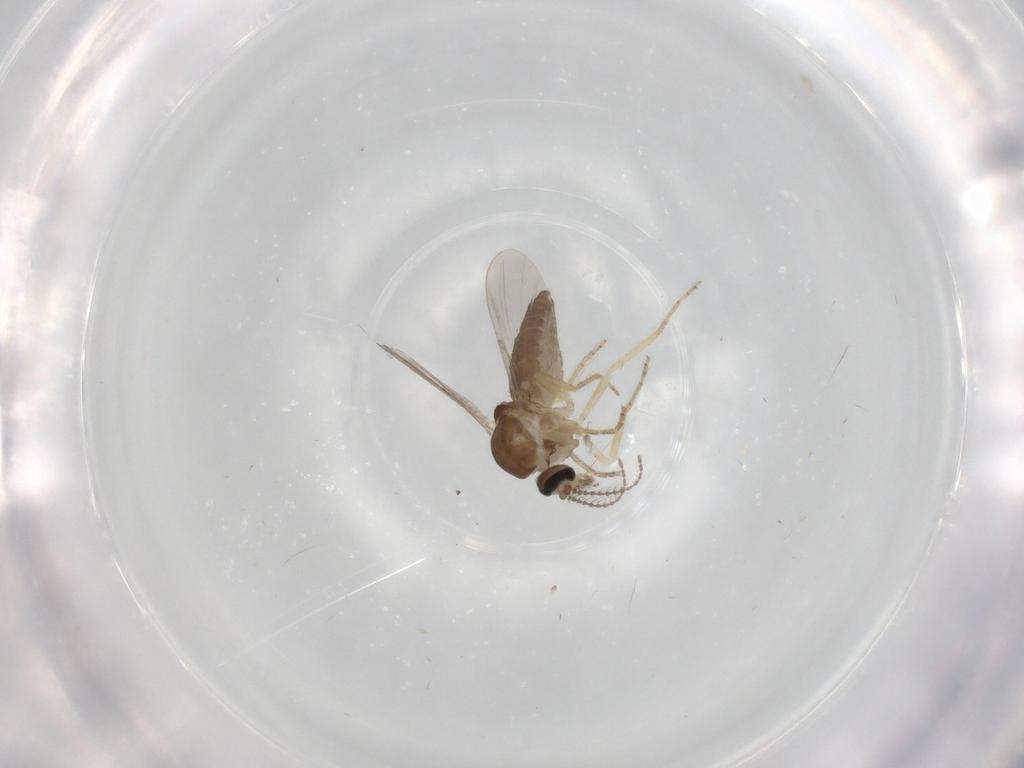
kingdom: Animalia
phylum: Arthropoda
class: Insecta
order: Diptera
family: Ceratopogonidae
